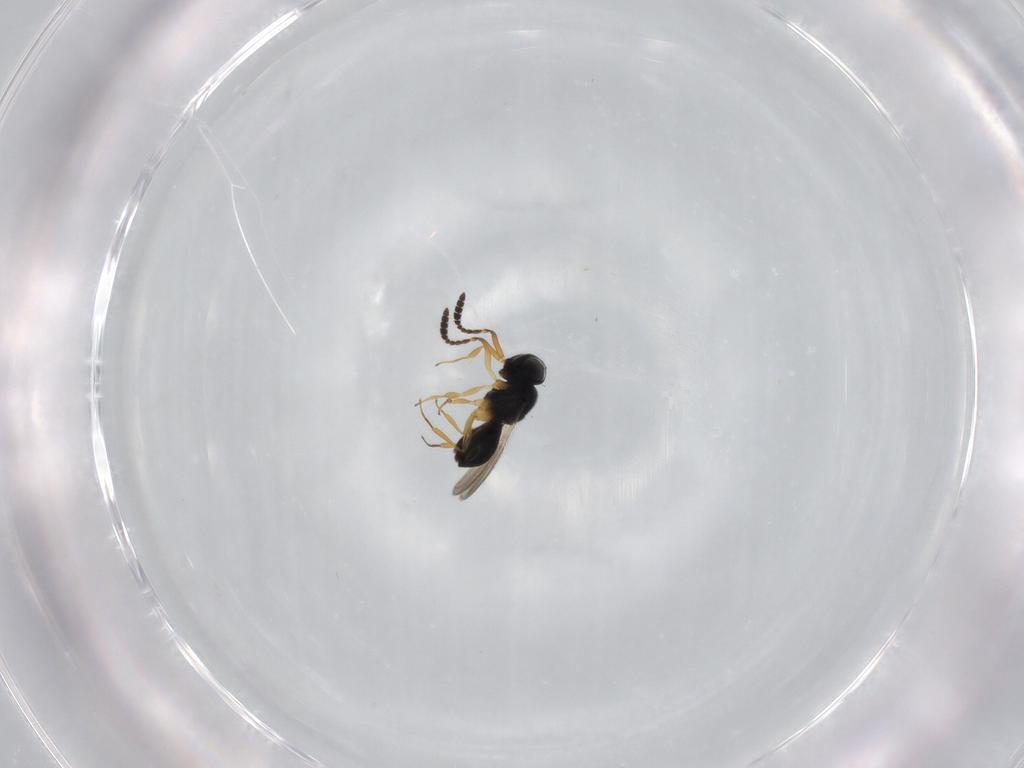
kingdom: Animalia
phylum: Arthropoda
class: Insecta
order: Hymenoptera
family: Scelionidae
